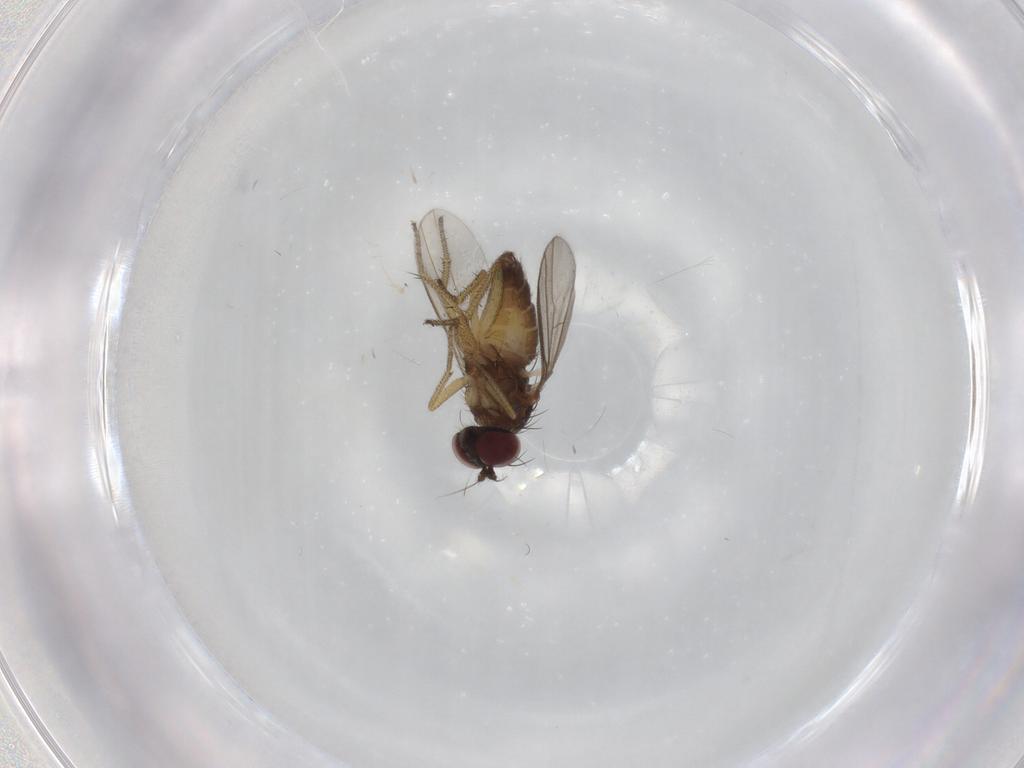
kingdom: Animalia
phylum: Arthropoda
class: Insecta
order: Diptera
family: Dolichopodidae
